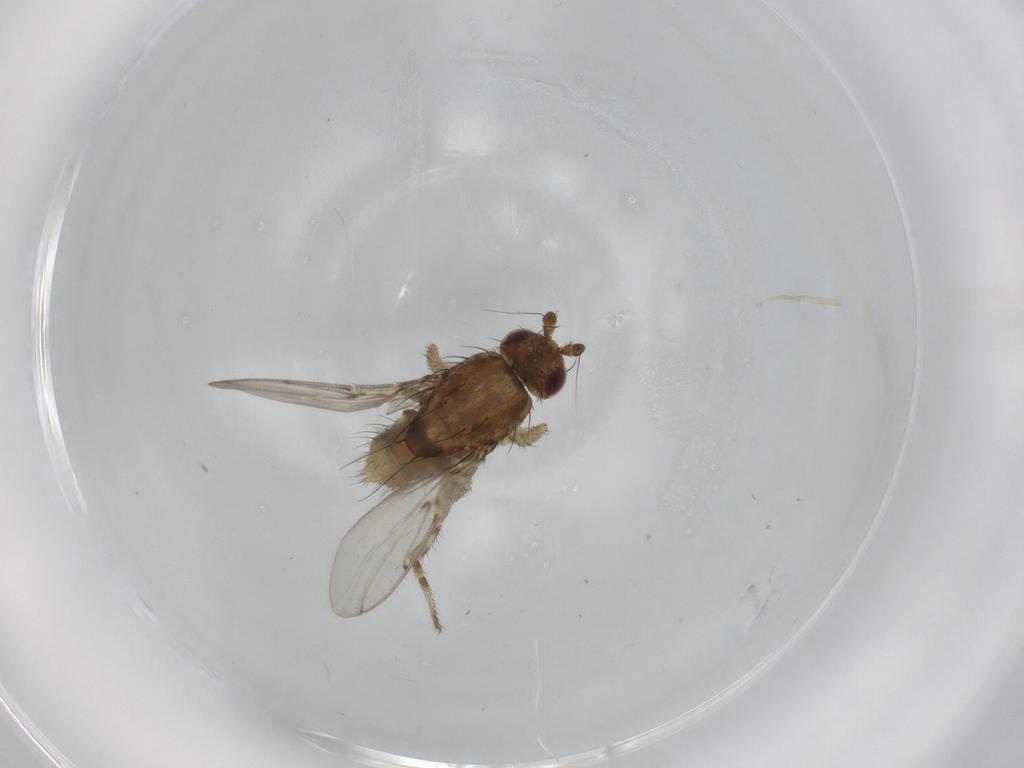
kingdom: Animalia
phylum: Arthropoda
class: Insecta
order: Diptera
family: Sphaeroceridae
